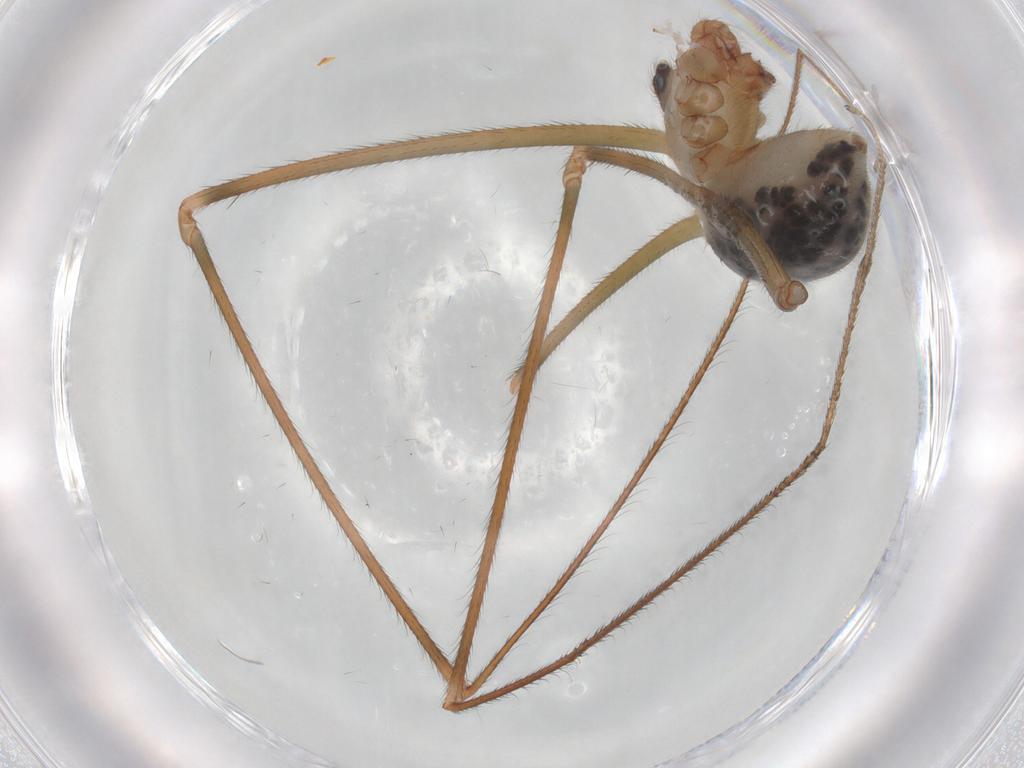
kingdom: Animalia
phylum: Arthropoda
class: Arachnida
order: Araneae
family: Pholcidae
